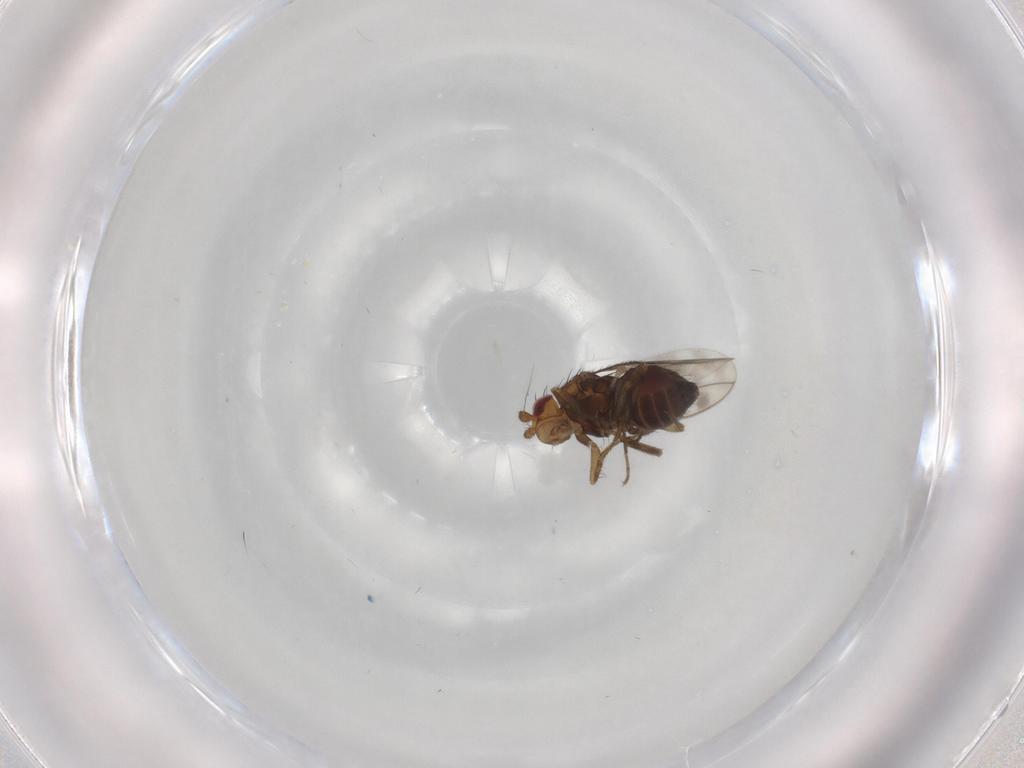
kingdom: Animalia
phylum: Arthropoda
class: Insecta
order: Diptera
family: Sphaeroceridae
